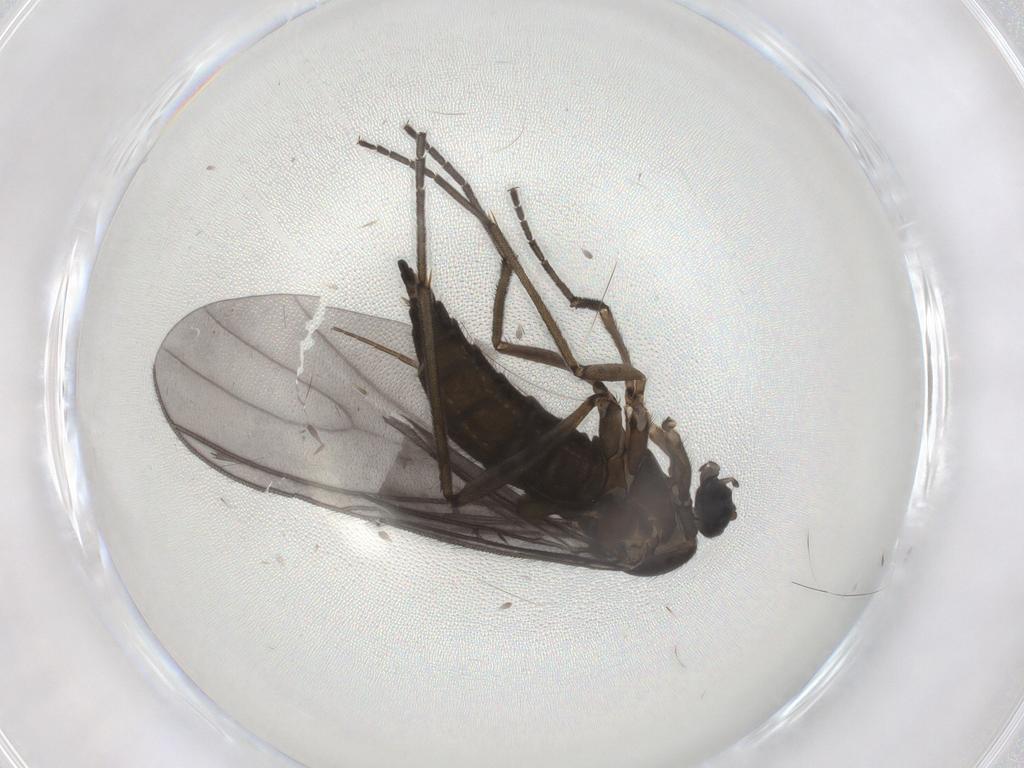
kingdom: Animalia
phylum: Arthropoda
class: Insecta
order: Diptera
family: Sciaridae
